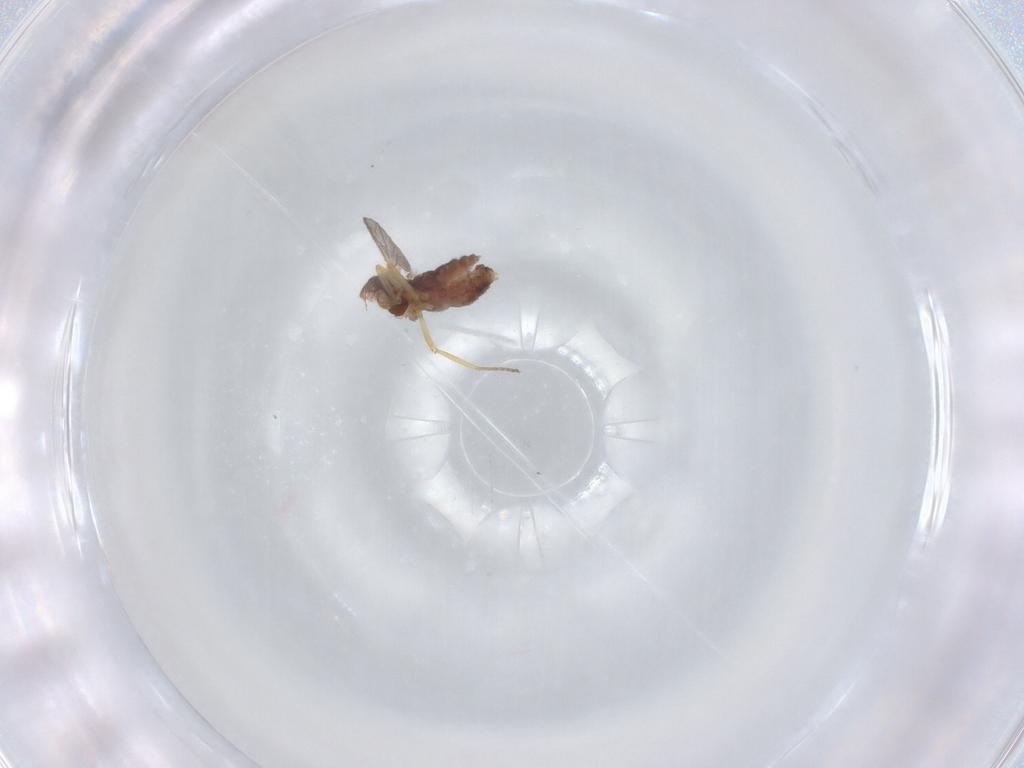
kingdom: Animalia
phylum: Arthropoda
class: Insecta
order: Diptera
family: Ceratopogonidae
